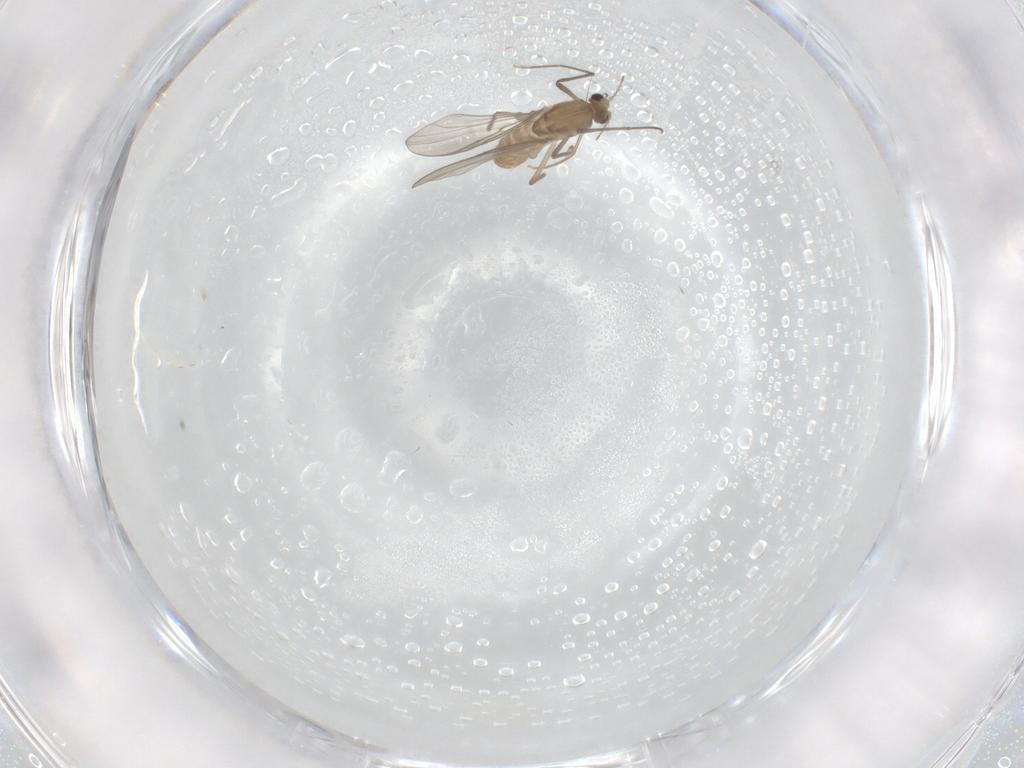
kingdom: Animalia
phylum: Arthropoda
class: Insecta
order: Diptera
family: Chironomidae
